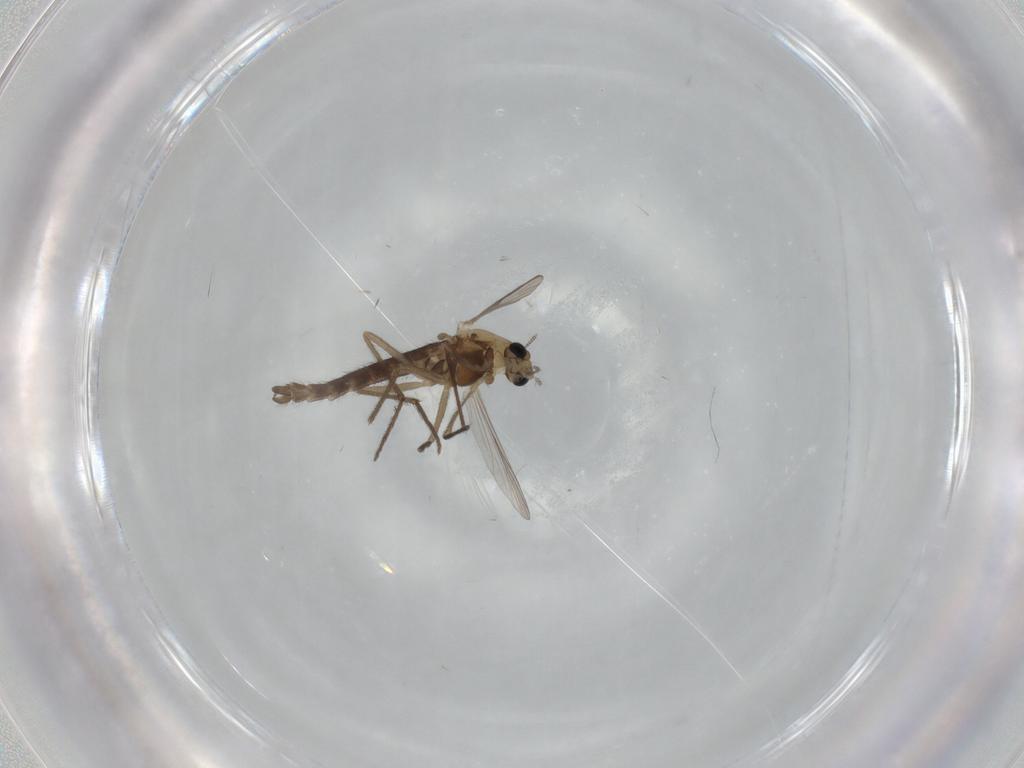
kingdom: Animalia
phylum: Arthropoda
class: Insecta
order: Diptera
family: Chironomidae
